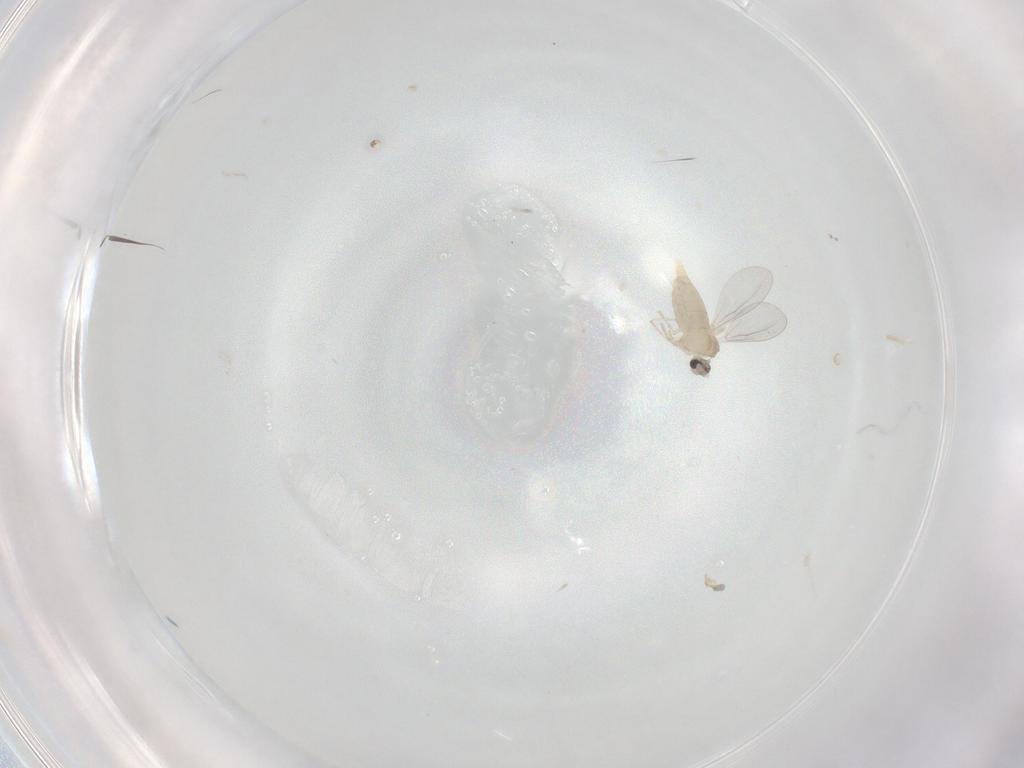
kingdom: Animalia
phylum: Arthropoda
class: Insecta
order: Diptera
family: Cecidomyiidae
